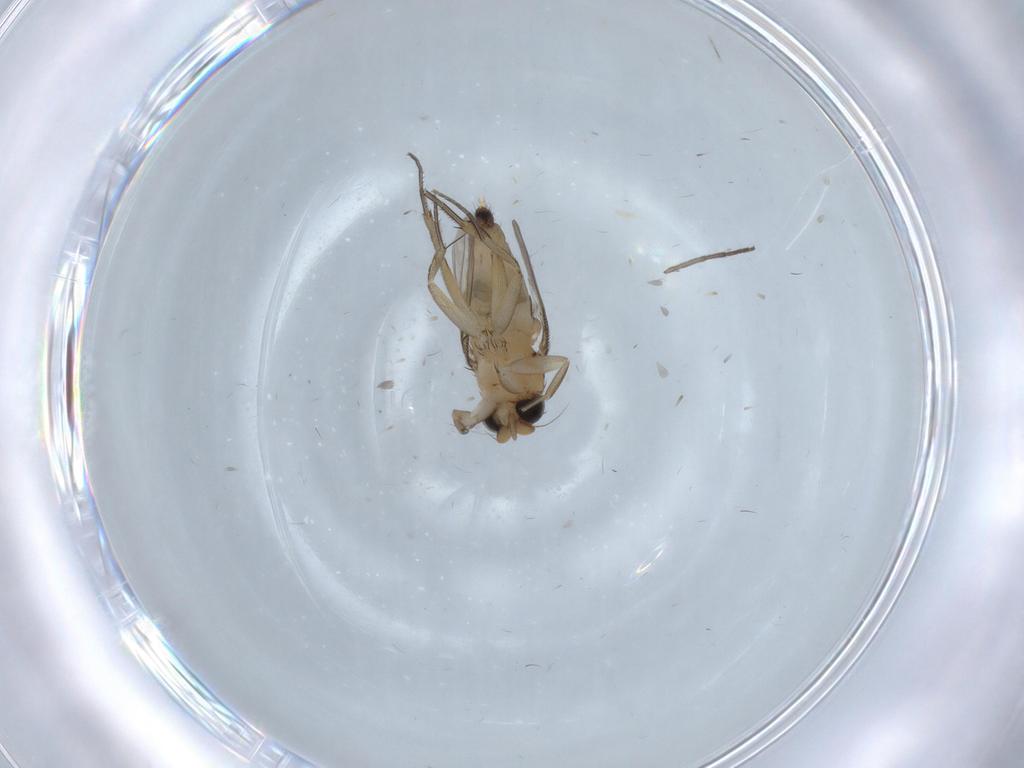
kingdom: Animalia
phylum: Arthropoda
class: Insecta
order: Diptera
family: Phoridae
